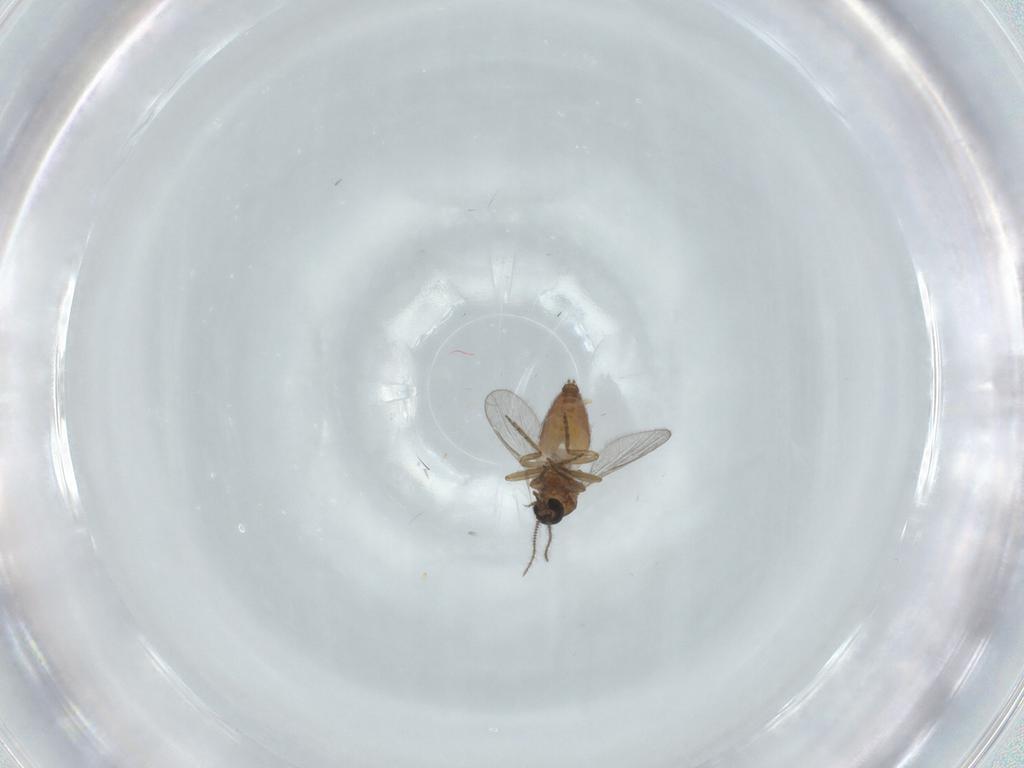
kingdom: Animalia
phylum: Arthropoda
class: Insecta
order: Diptera
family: Ceratopogonidae
